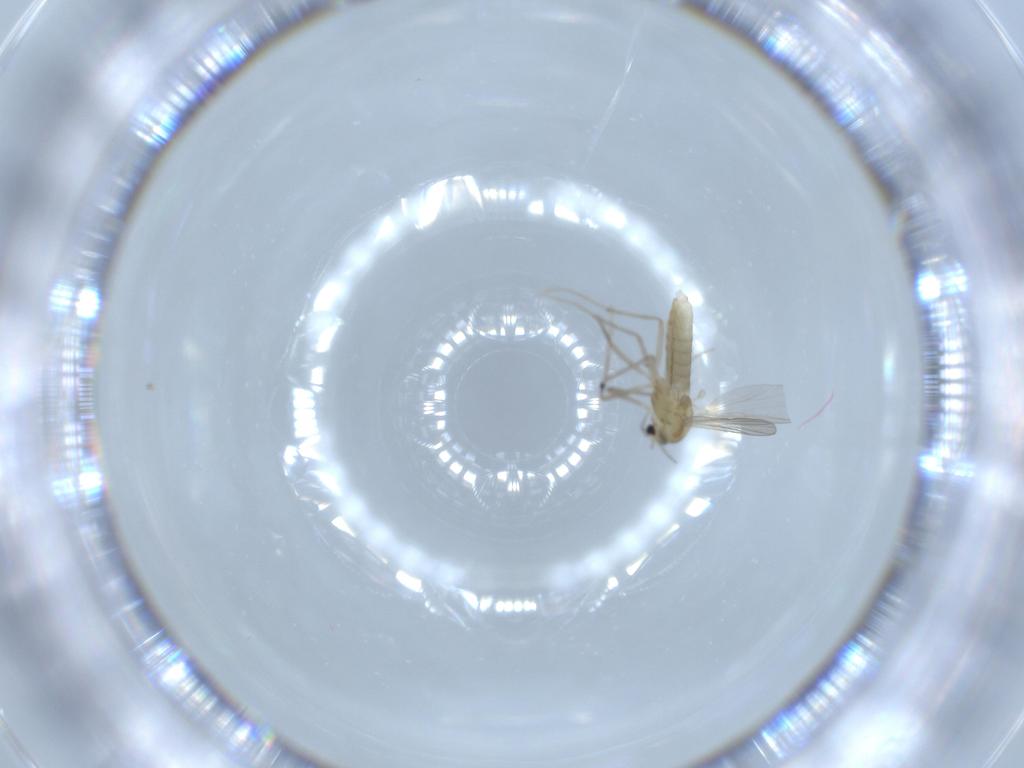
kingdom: Animalia
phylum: Arthropoda
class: Insecta
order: Diptera
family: Chironomidae
